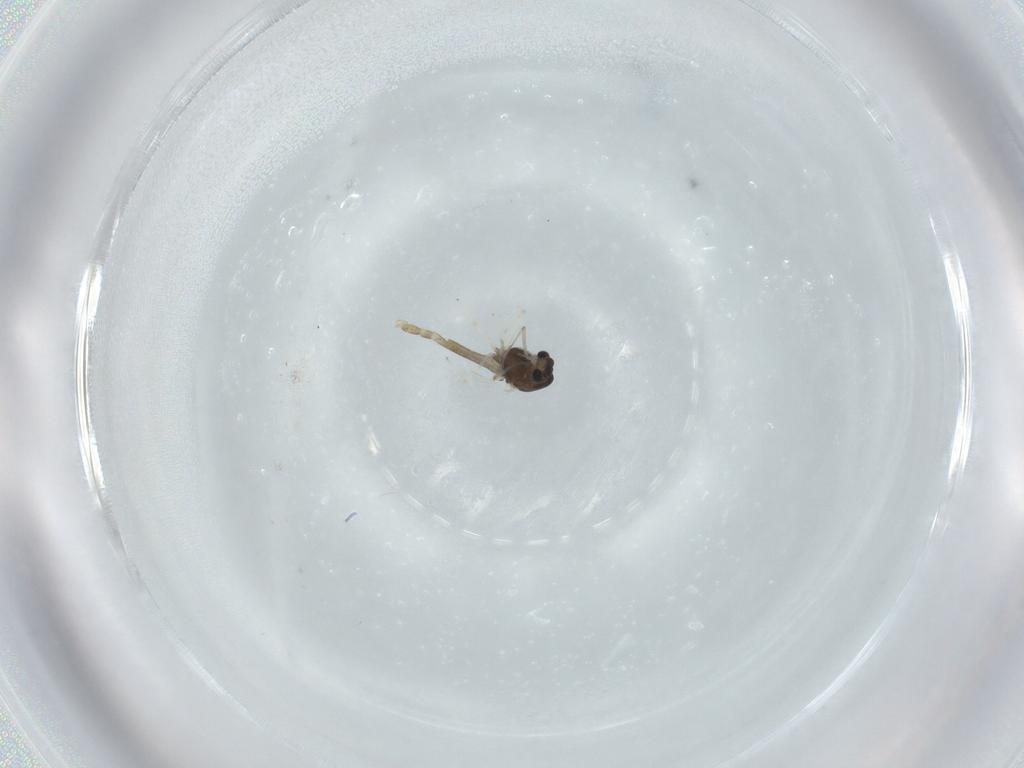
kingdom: Animalia
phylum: Arthropoda
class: Insecta
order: Diptera
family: Chironomidae
